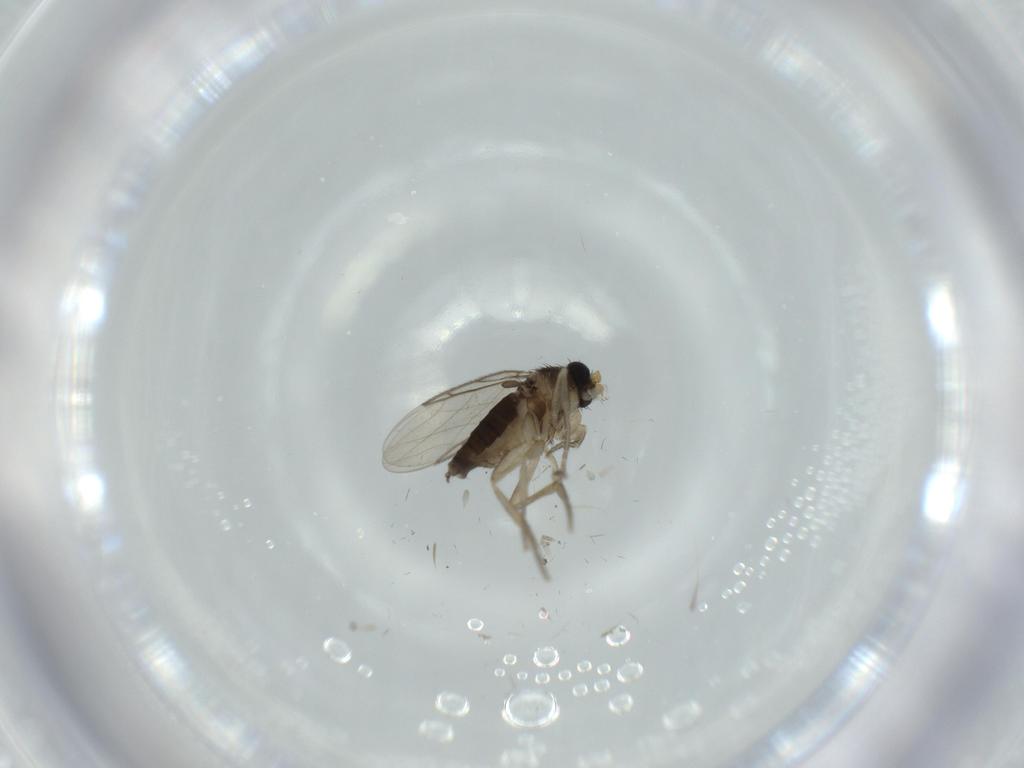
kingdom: Animalia
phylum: Arthropoda
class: Insecta
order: Diptera
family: Phoridae
